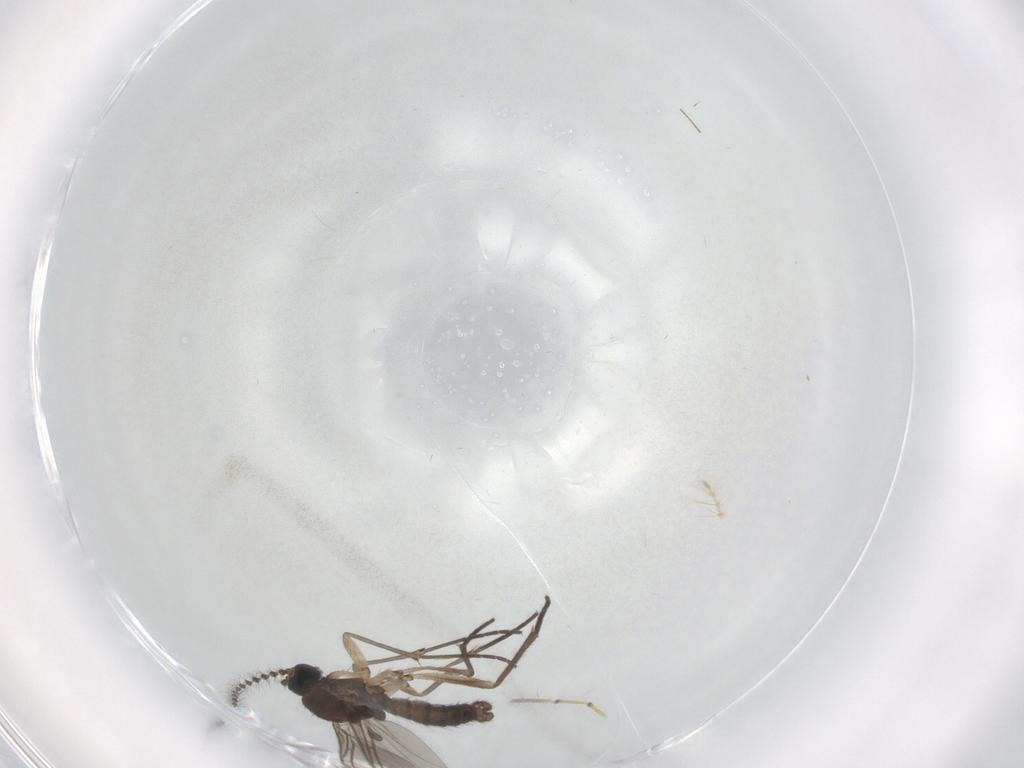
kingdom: Animalia
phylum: Arthropoda
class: Insecta
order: Diptera
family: Sciaridae
